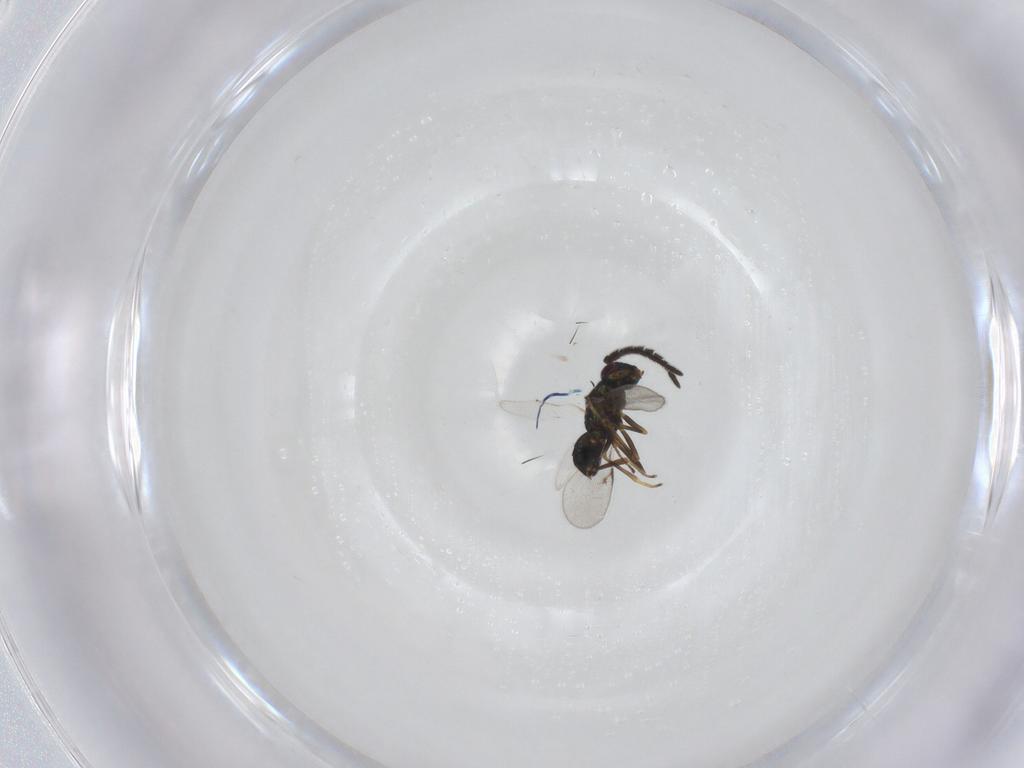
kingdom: Animalia
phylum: Arthropoda
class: Insecta
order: Hymenoptera
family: Encyrtidae
